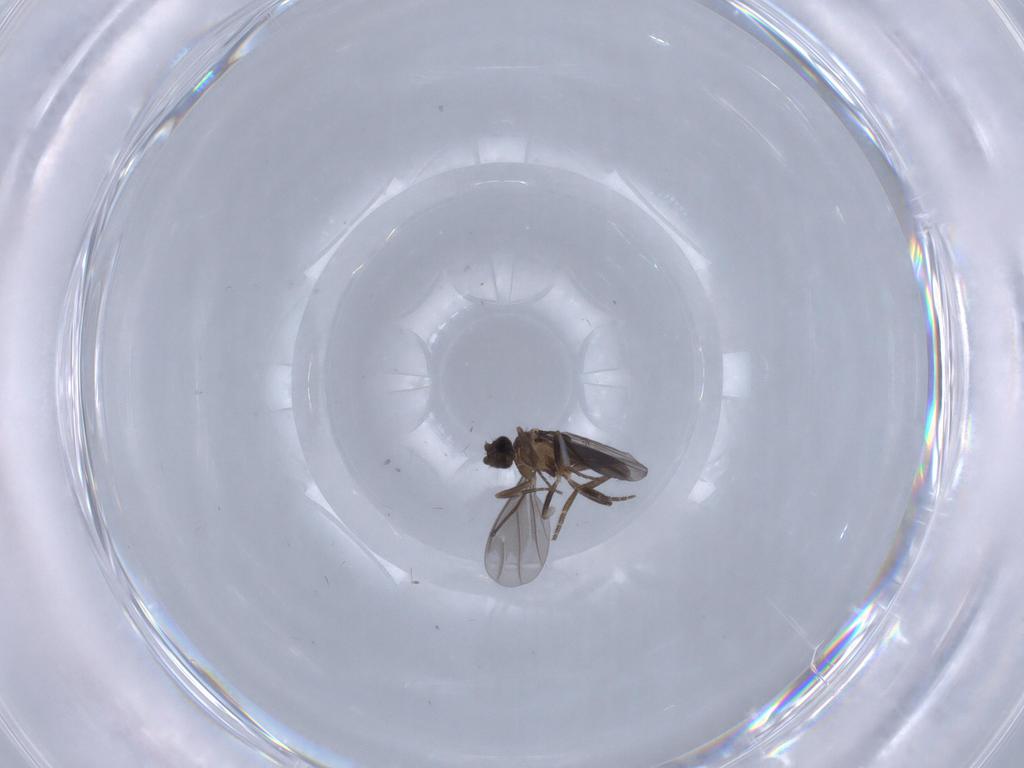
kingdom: Animalia
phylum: Arthropoda
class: Insecta
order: Diptera
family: Phoridae
